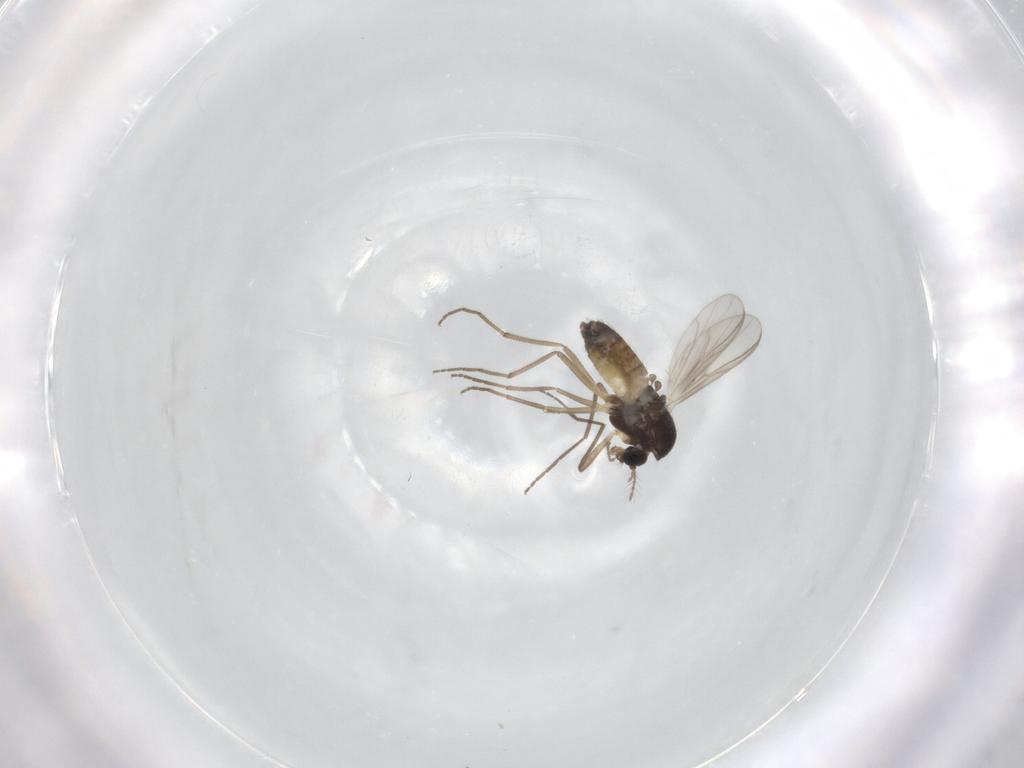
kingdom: Animalia
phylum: Arthropoda
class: Insecta
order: Diptera
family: Chironomidae
